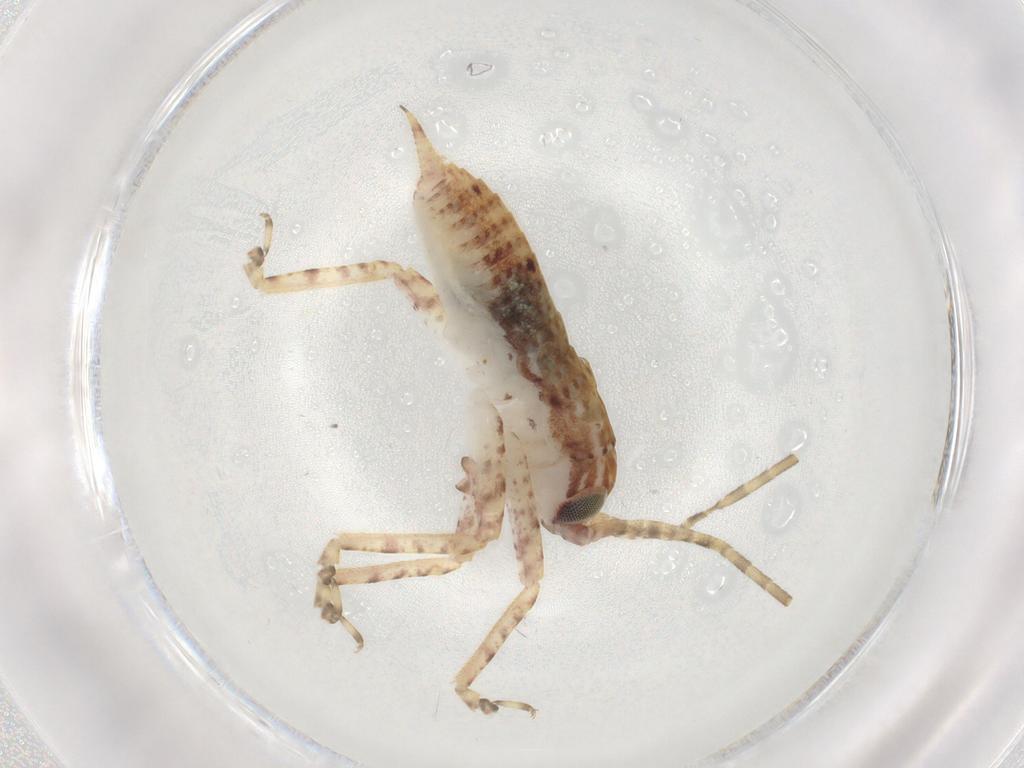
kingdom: Animalia
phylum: Arthropoda
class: Insecta
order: Orthoptera
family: Gryllidae
